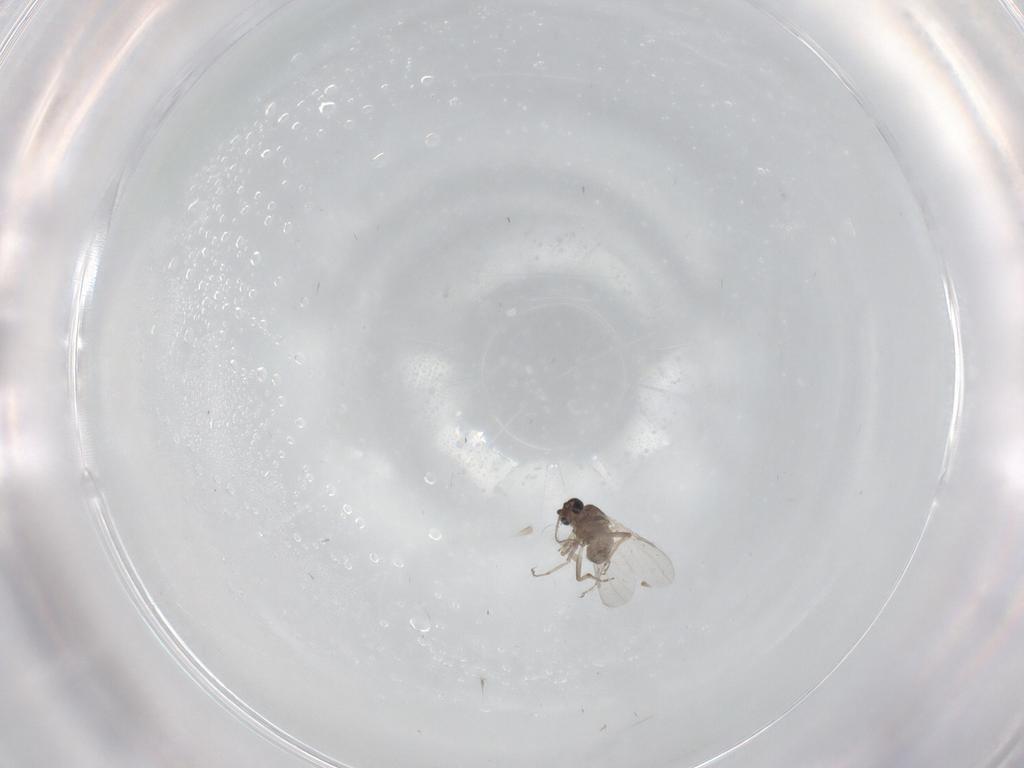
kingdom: Animalia
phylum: Arthropoda
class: Insecta
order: Diptera
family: Ceratopogonidae
